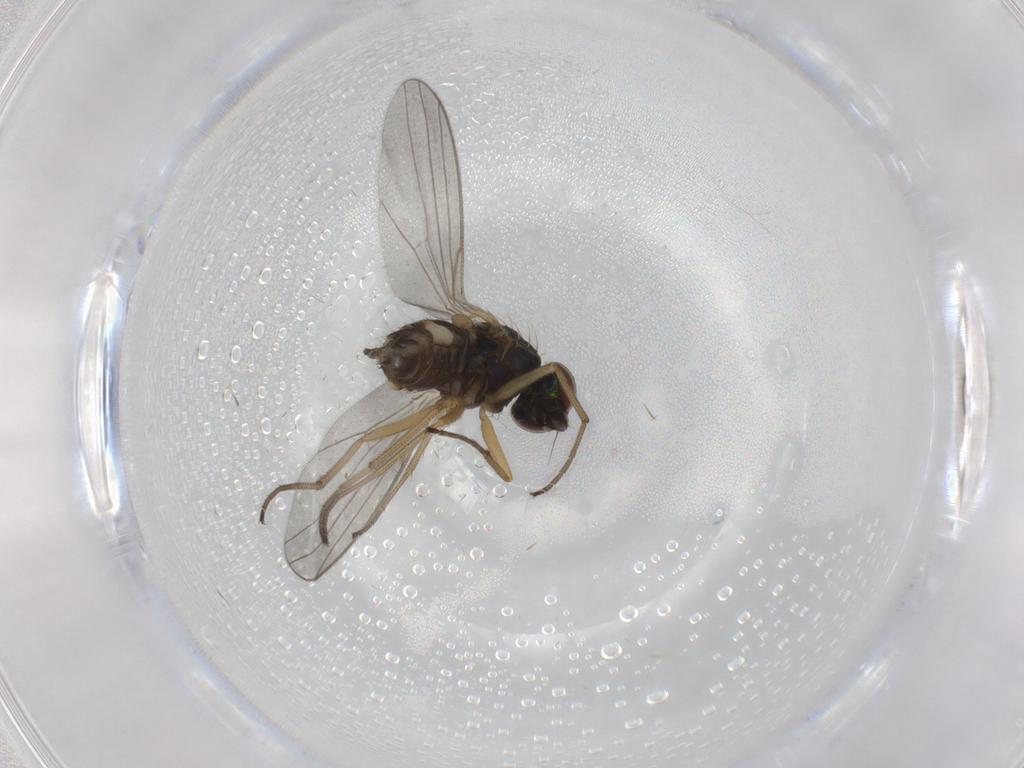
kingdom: Animalia
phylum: Arthropoda
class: Insecta
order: Diptera
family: Dolichopodidae
